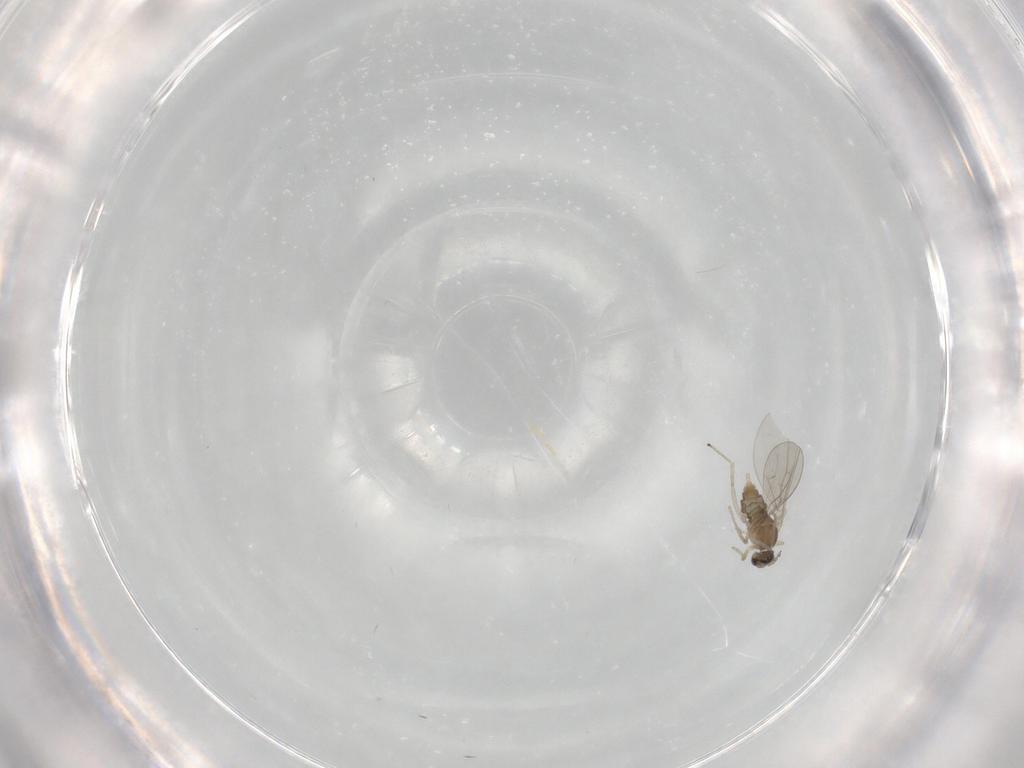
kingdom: Animalia
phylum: Arthropoda
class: Insecta
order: Diptera
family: Cecidomyiidae
